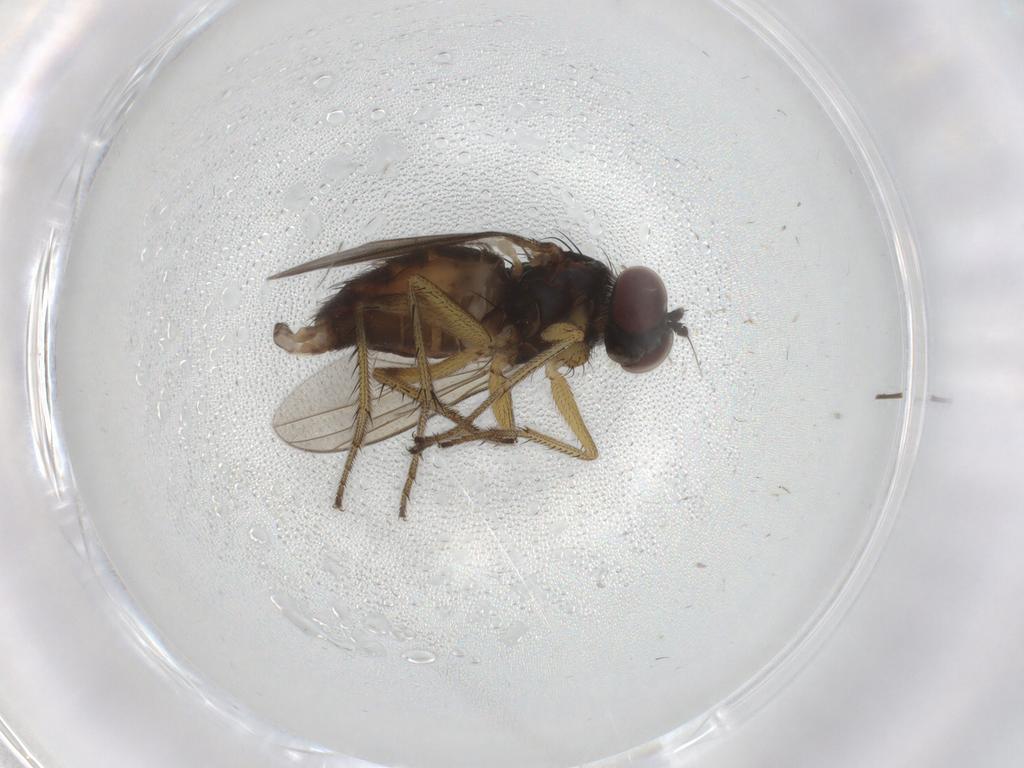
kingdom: Animalia
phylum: Arthropoda
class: Insecta
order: Diptera
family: Dolichopodidae
